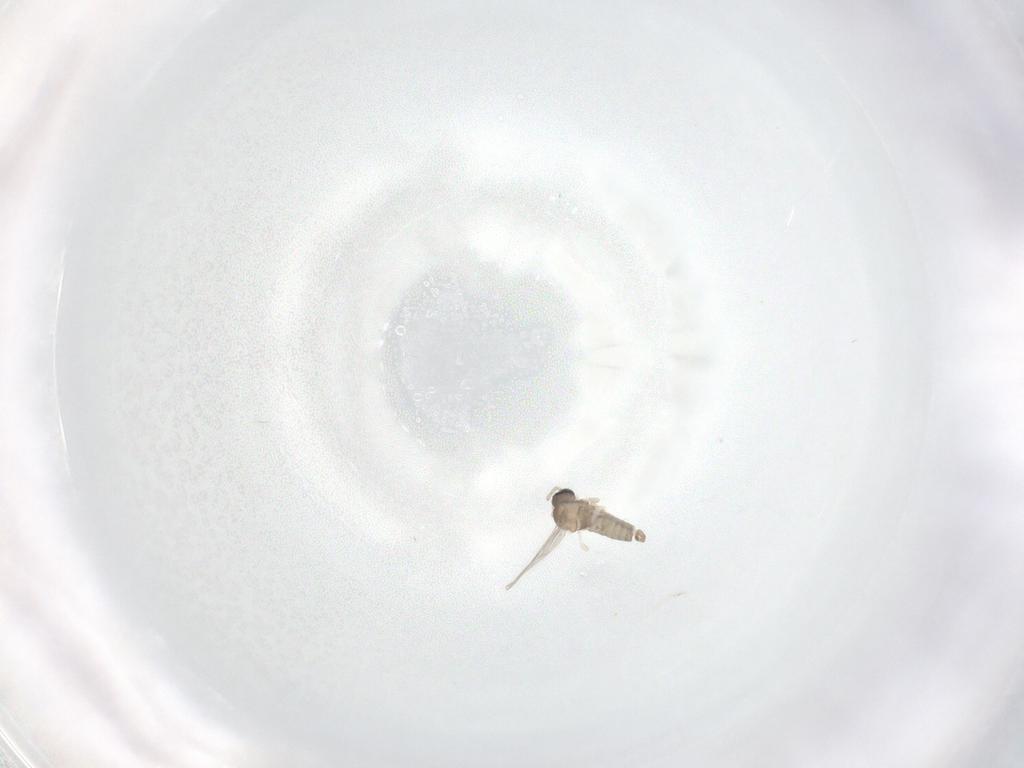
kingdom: Animalia
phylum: Arthropoda
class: Insecta
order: Diptera
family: Cecidomyiidae
